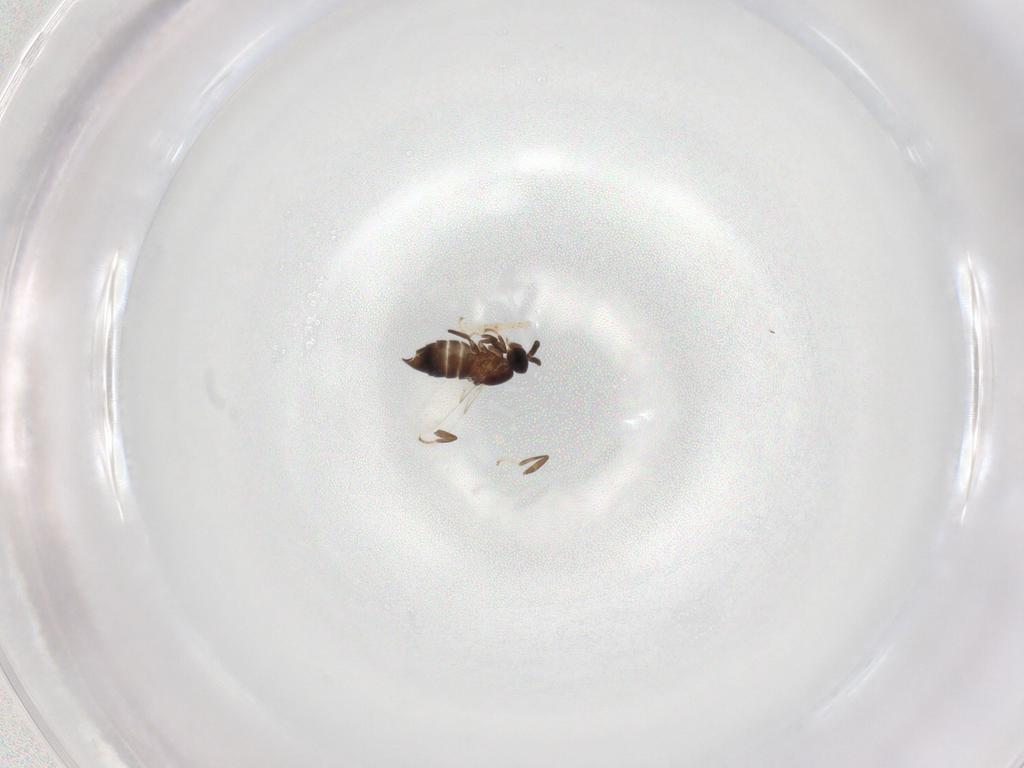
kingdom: Animalia
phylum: Arthropoda
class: Insecta
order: Diptera
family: Scatopsidae
